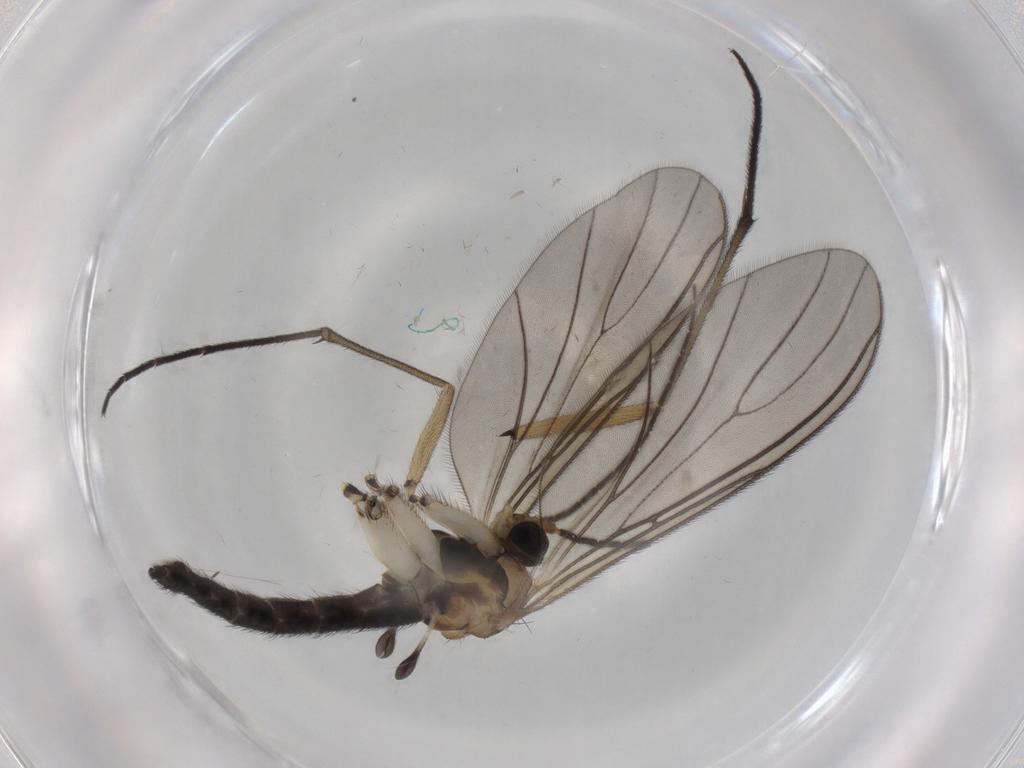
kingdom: Animalia
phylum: Arthropoda
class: Insecta
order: Diptera
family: Sciaridae
